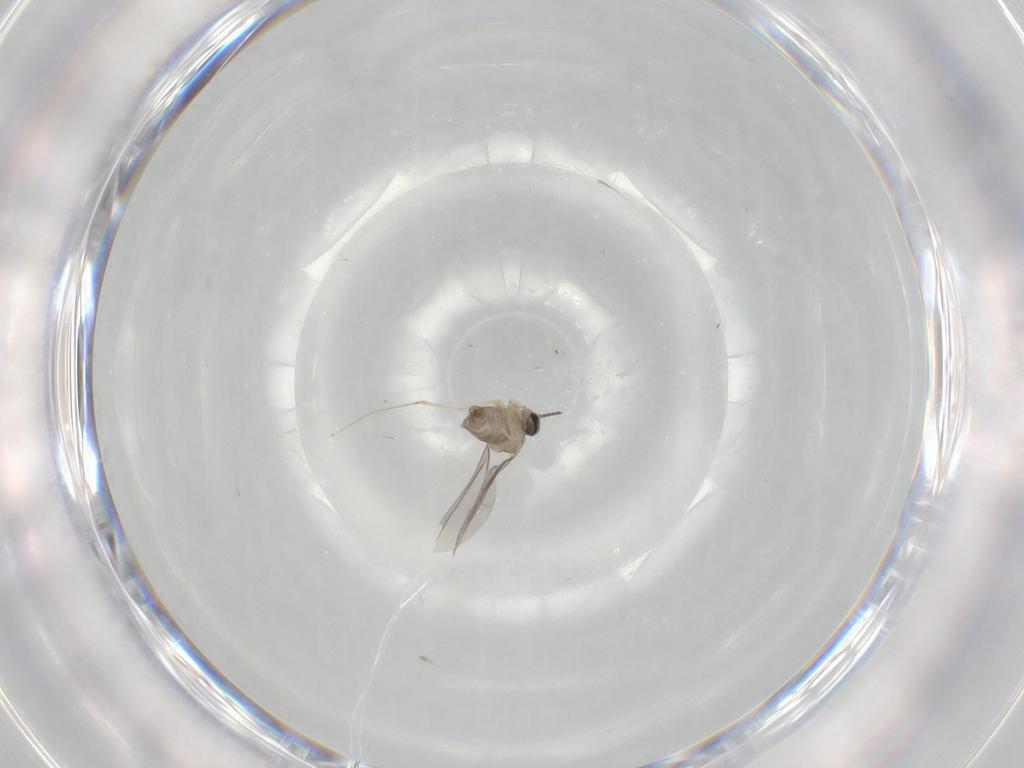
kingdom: Animalia
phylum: Arthropoda
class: Insecta
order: Diptera
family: Cecidomyiidae
